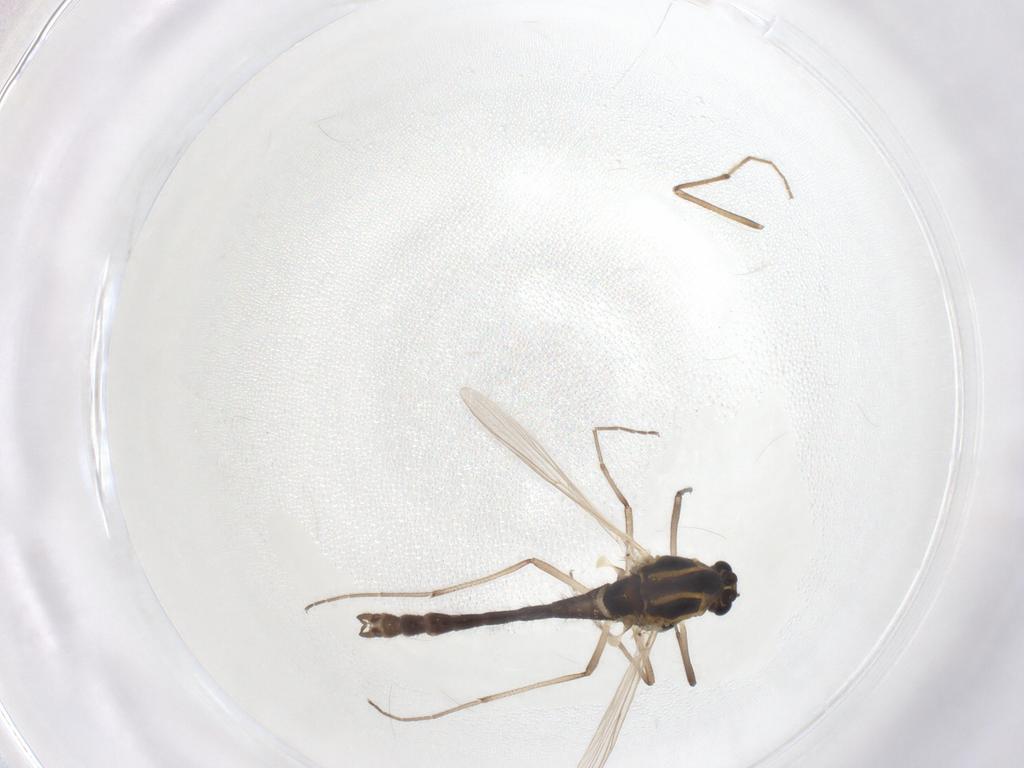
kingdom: Animalia
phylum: Arthropoda
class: Insecta
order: Diptera
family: Chironomidae
